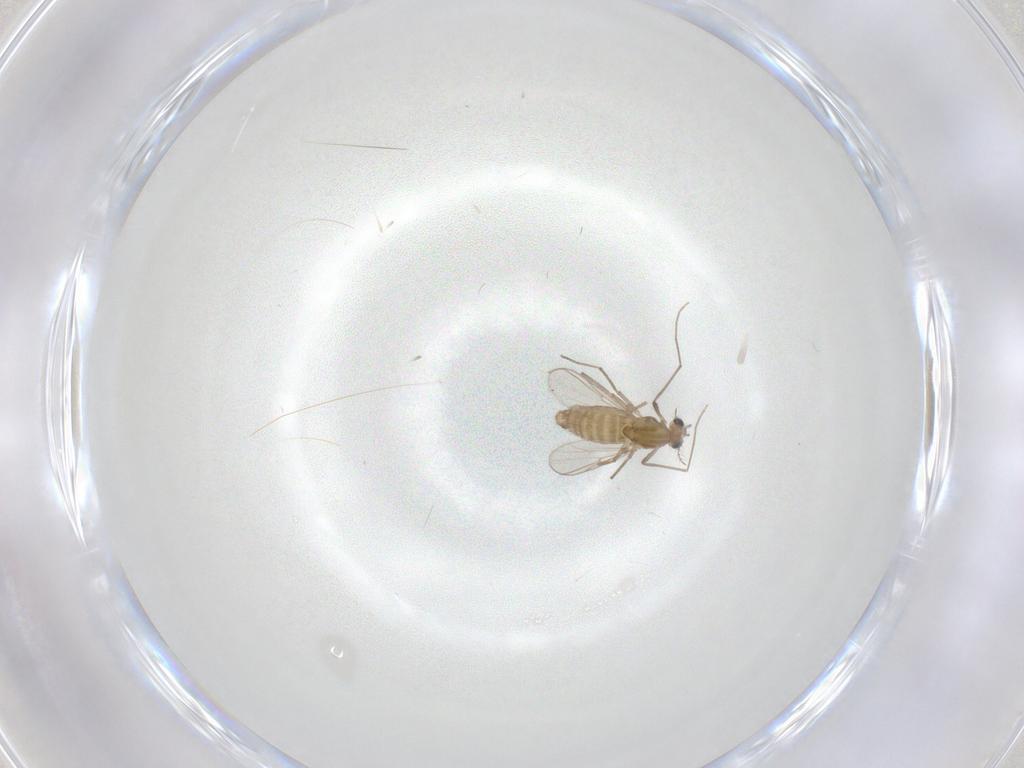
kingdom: Animalia
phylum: Arthropoda
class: Insecta
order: Diptera
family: Chironomidae
